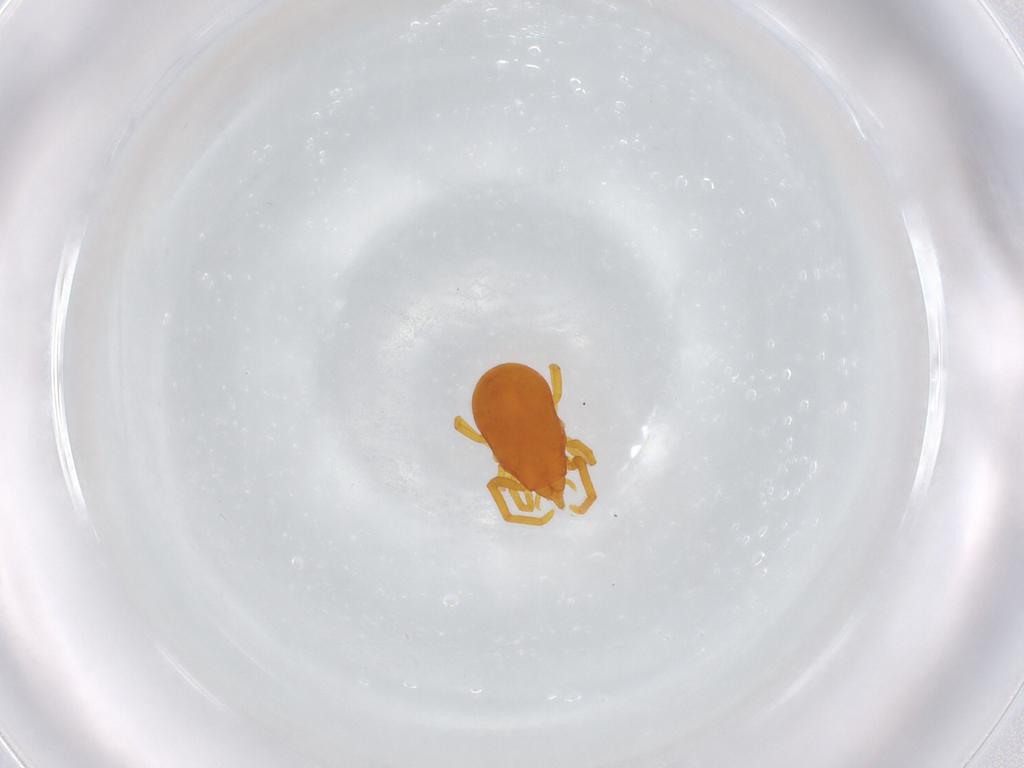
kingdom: Animalia
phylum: Arthropoda
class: Arachnida
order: Trombidiformes
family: Labidostommidae
